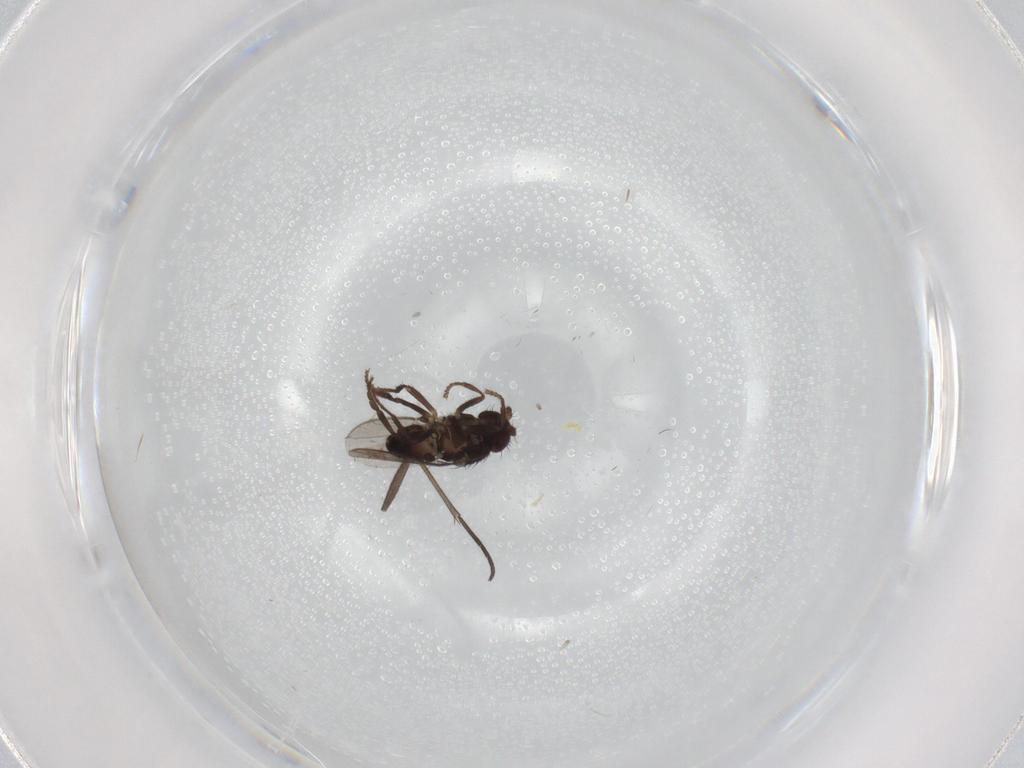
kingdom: Animalia
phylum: Arthropoda
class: Insecta
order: Diptera
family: Syrphidae
